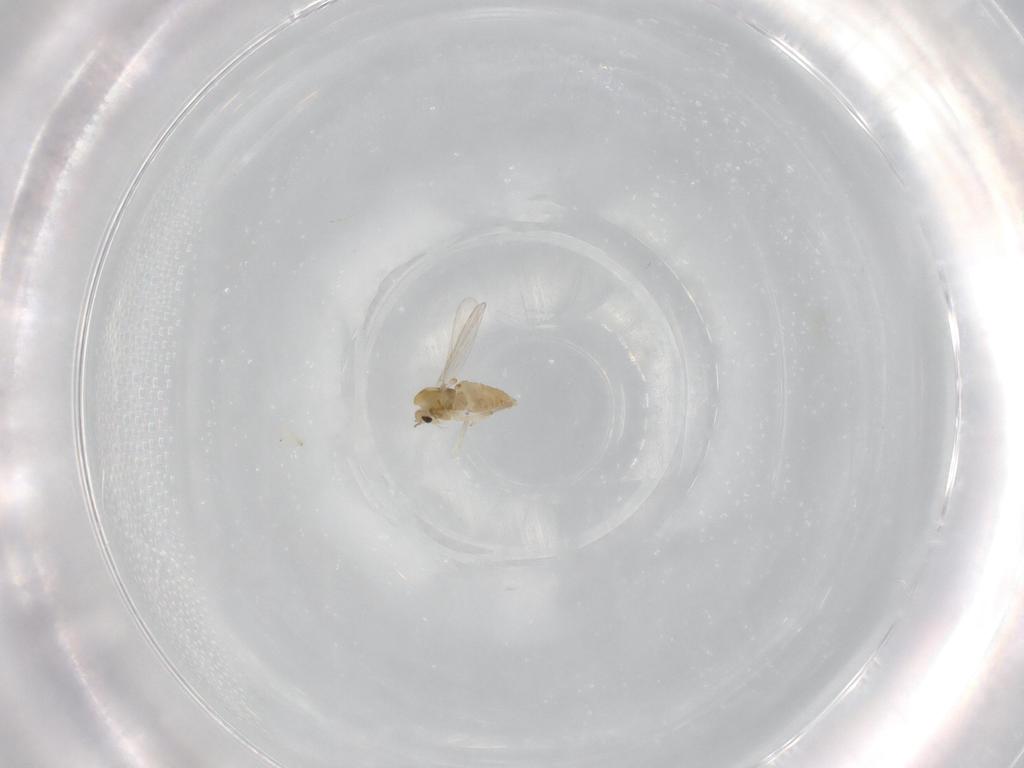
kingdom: Animalia
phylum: Arthropoda
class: Insecta
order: Diptera
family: Chironomidae
